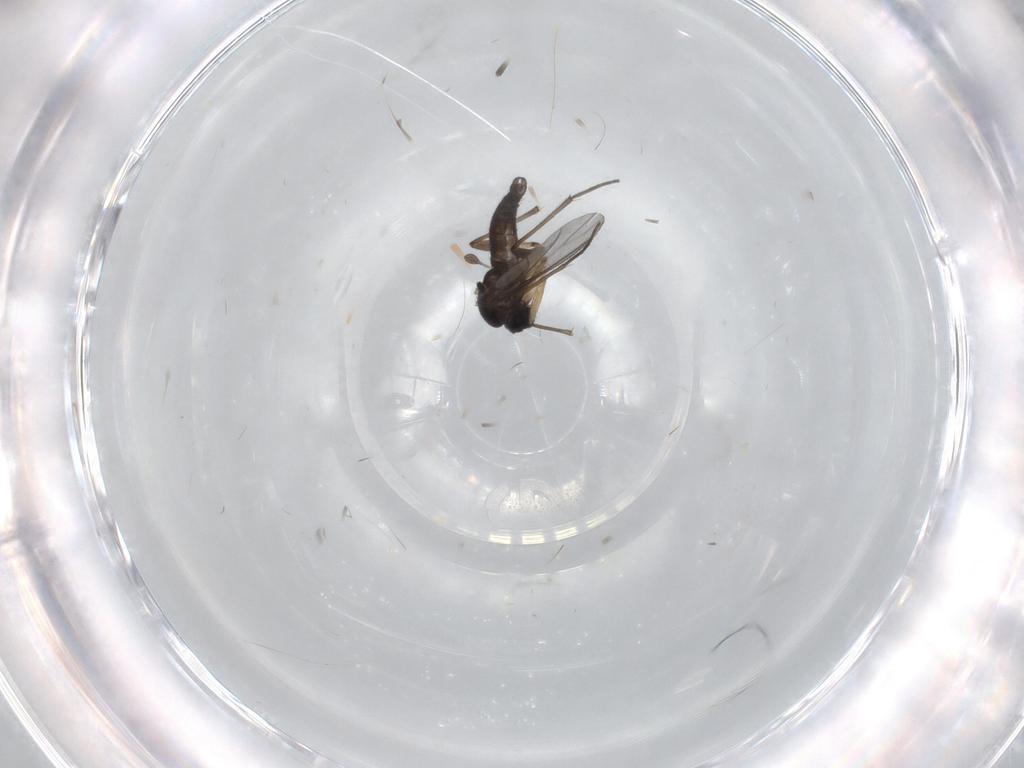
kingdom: Animalia
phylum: Arthropoda
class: Insecta
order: Diptera
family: Sciaridae
